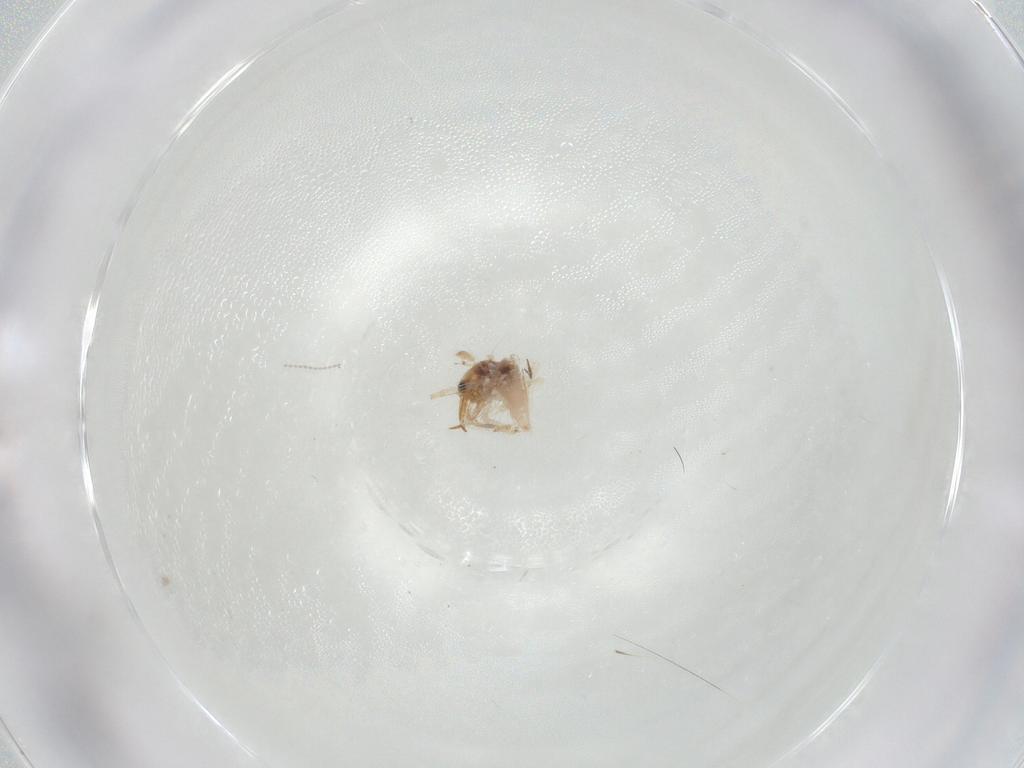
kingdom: Animalia
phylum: Arthropoda
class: Insecta
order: Neuroptera
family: Chrysopidae
